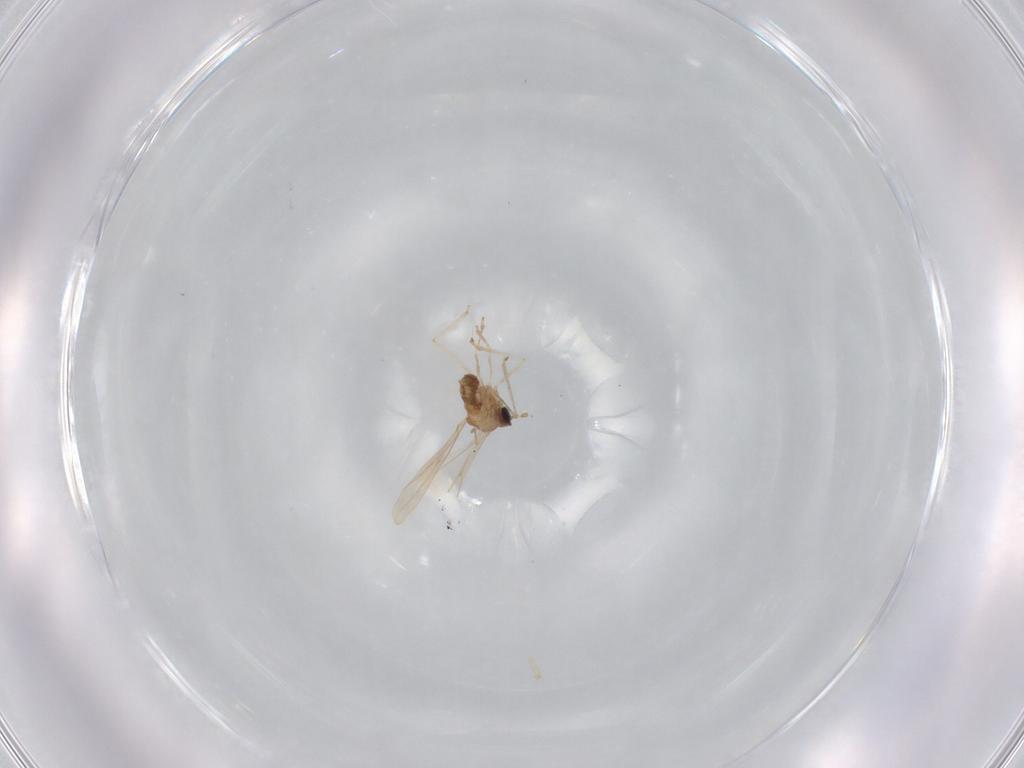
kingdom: Animalia
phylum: Arthropoda
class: Insecta
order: Diptera
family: Cecidomyiidae
